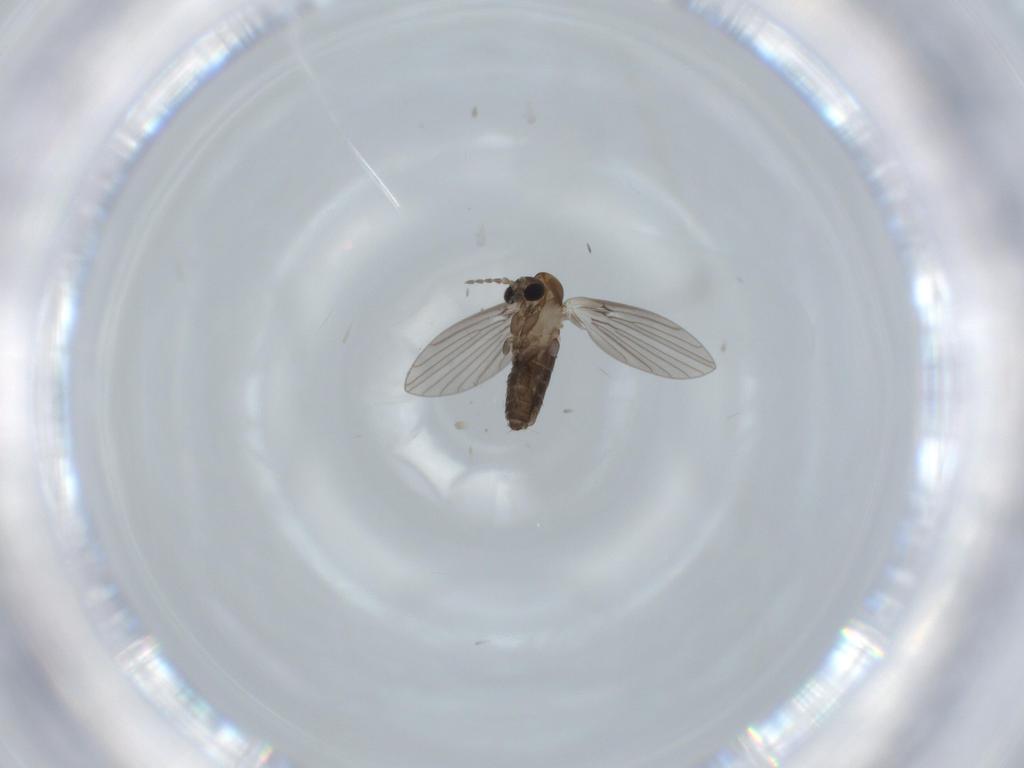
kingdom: Animalia
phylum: Arthropoda
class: Insecta
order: Diptera
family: Psychodidae
